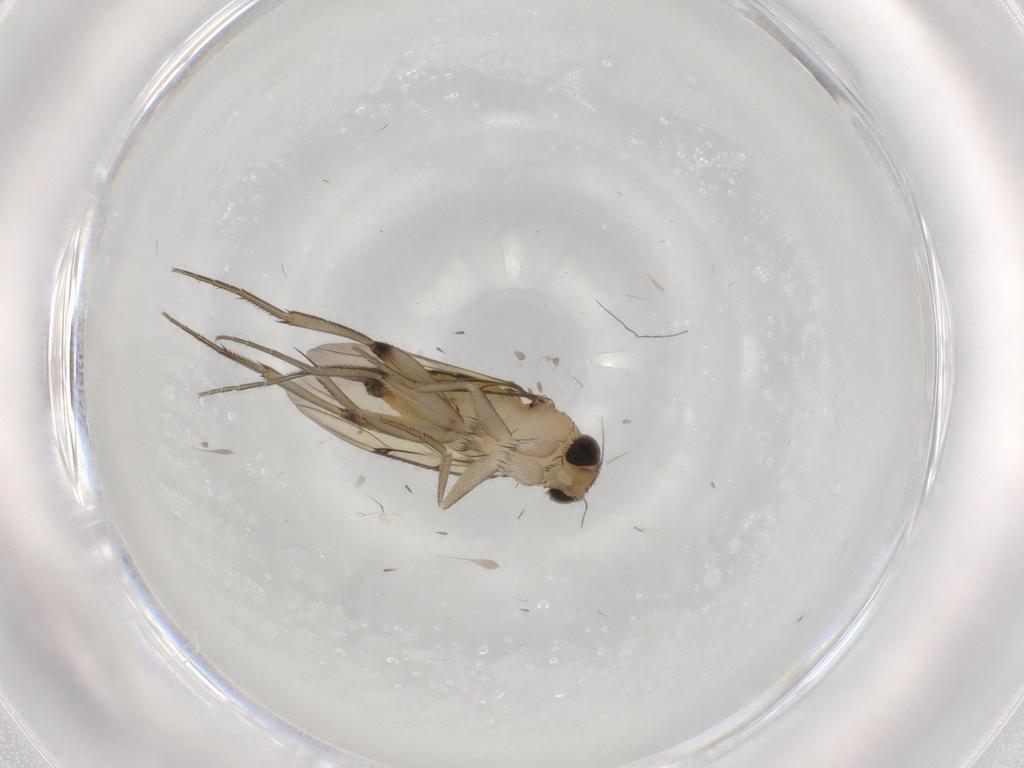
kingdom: Animalia
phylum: Arthropoda
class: Insecta
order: Diptera
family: Phoridae
